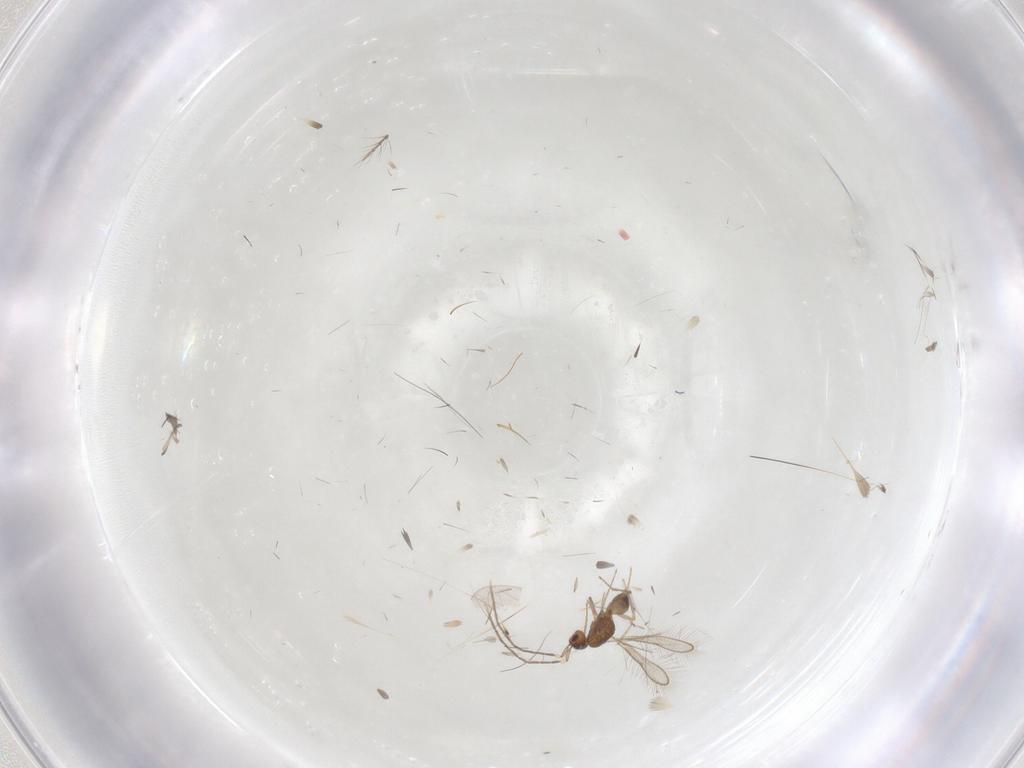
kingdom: Animalia
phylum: Arthropoda
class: Insecta
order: Diptera
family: Chironomidae
